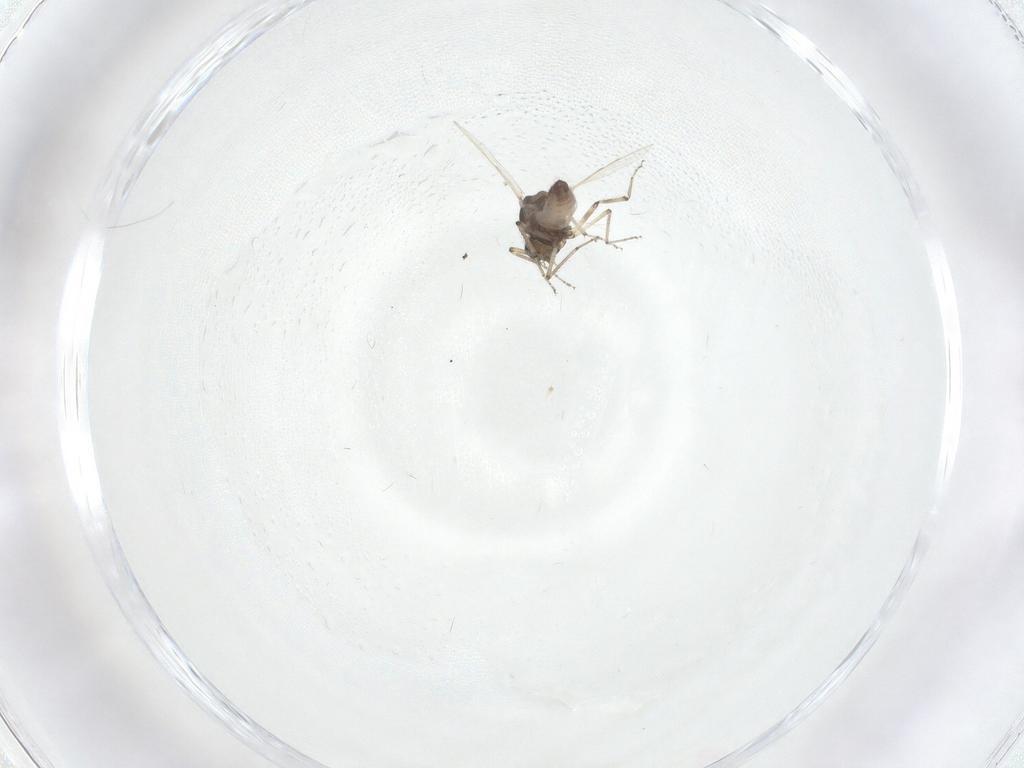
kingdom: Animalia
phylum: Arthropoda
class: Insecta
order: Diptera
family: Ceratopogonidae
